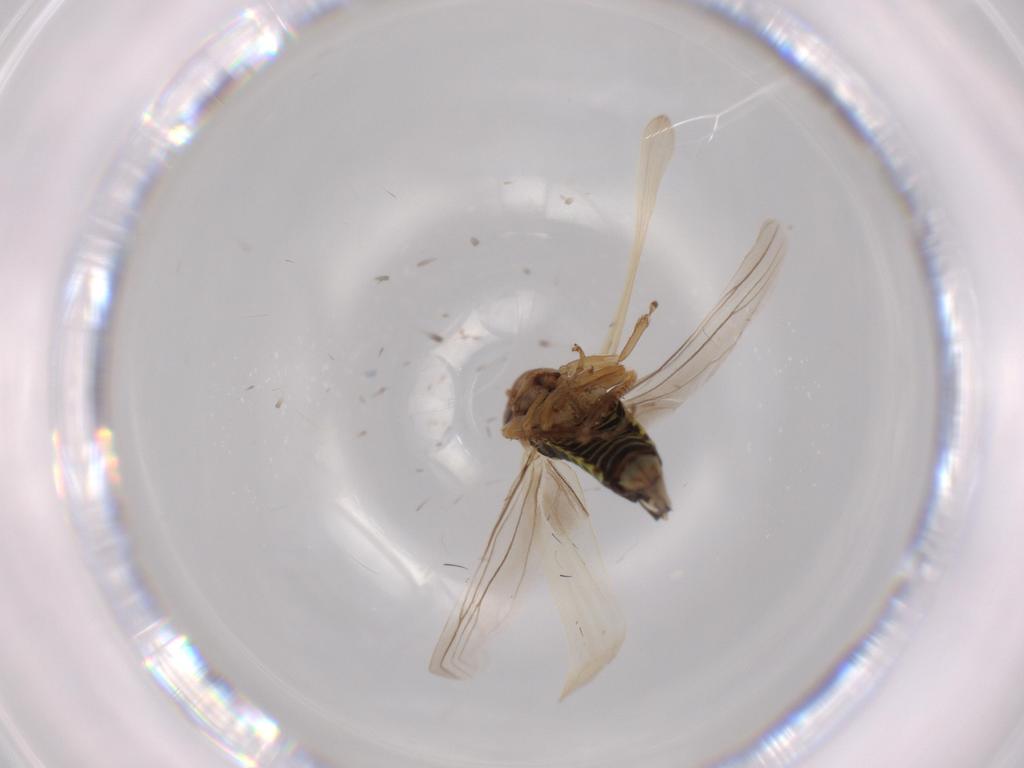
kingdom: Animalia
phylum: Arthropoda
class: Insecta
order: Hemiptera
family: Cicadellidae
